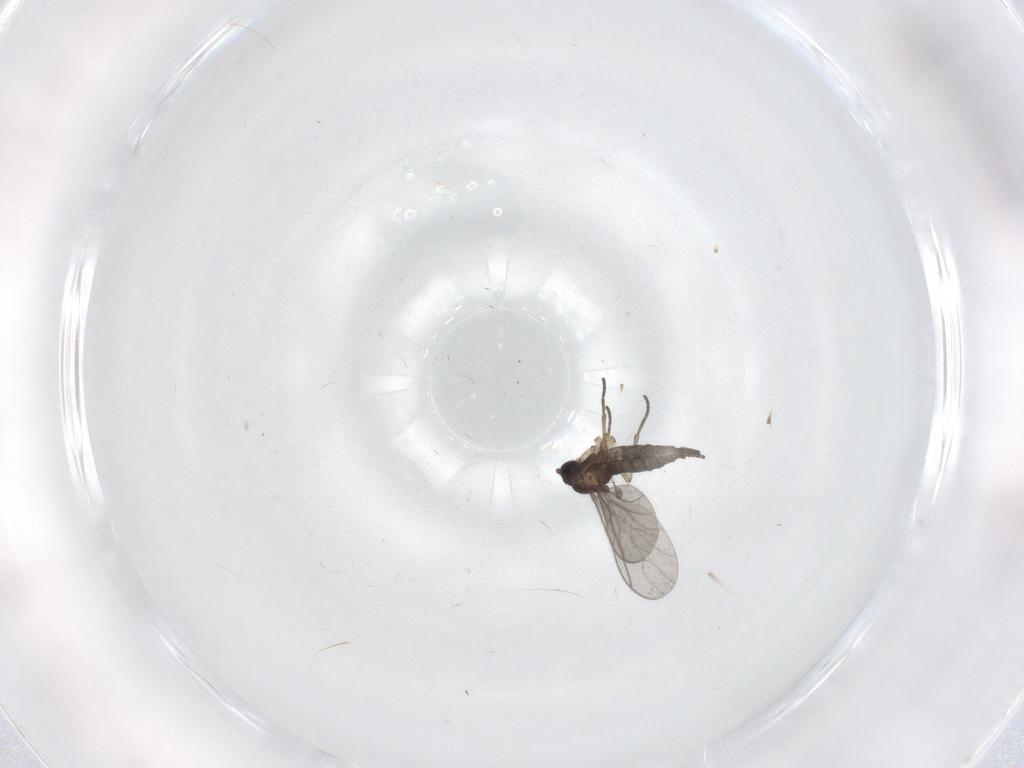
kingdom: Animalia
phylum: Arthropoda
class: Insecta
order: Diptera
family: Sciaridae
